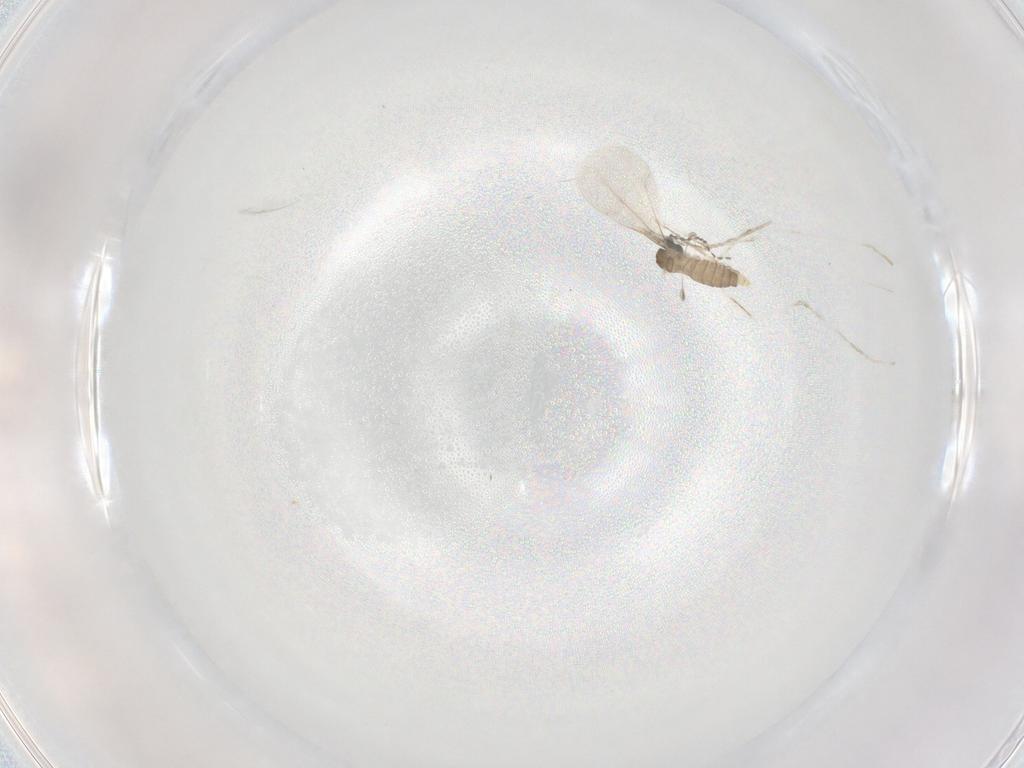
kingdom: Animalia
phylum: Arthropoda
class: Insecta
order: Diptera
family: Cecidomyiidae
